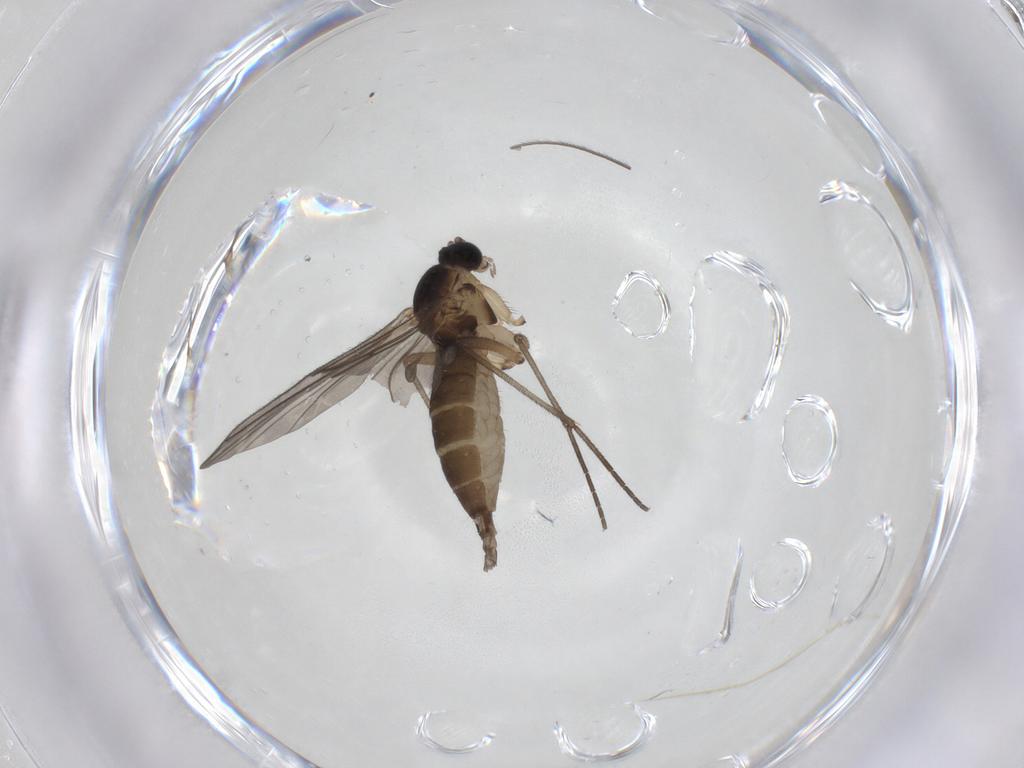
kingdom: Animalia
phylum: Arthropoda
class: Insecta
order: Diptera
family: Sciaridae
